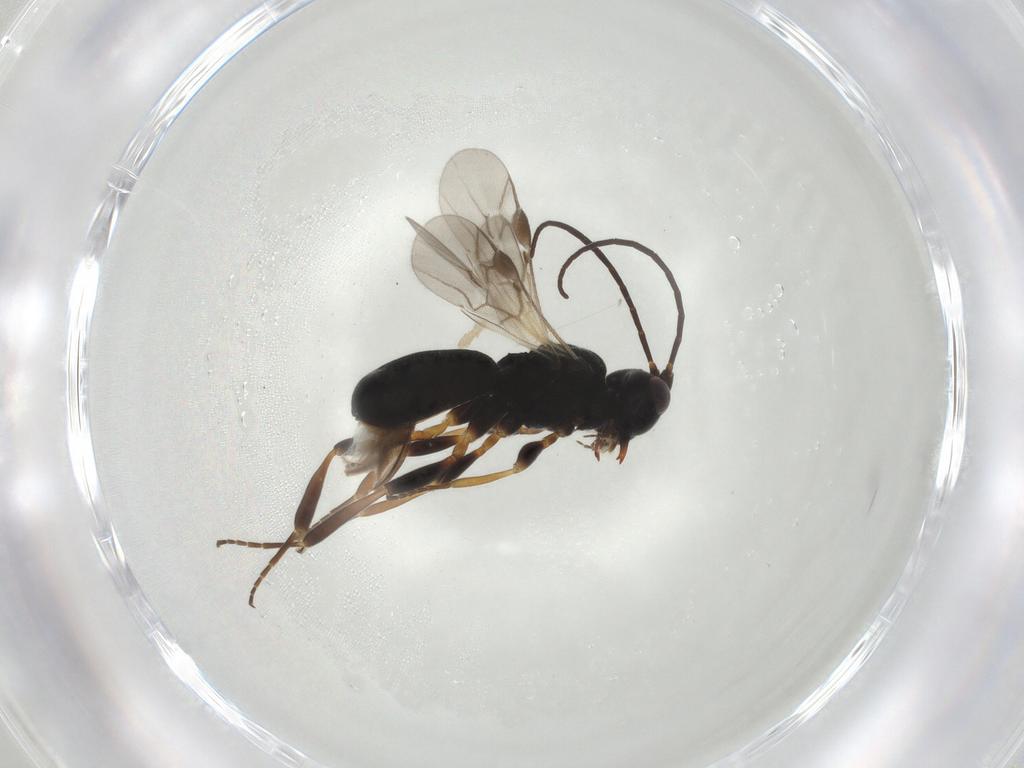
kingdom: Animalia
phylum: Arthropoda
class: Insecta
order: Hymenoptera
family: Braconidae
